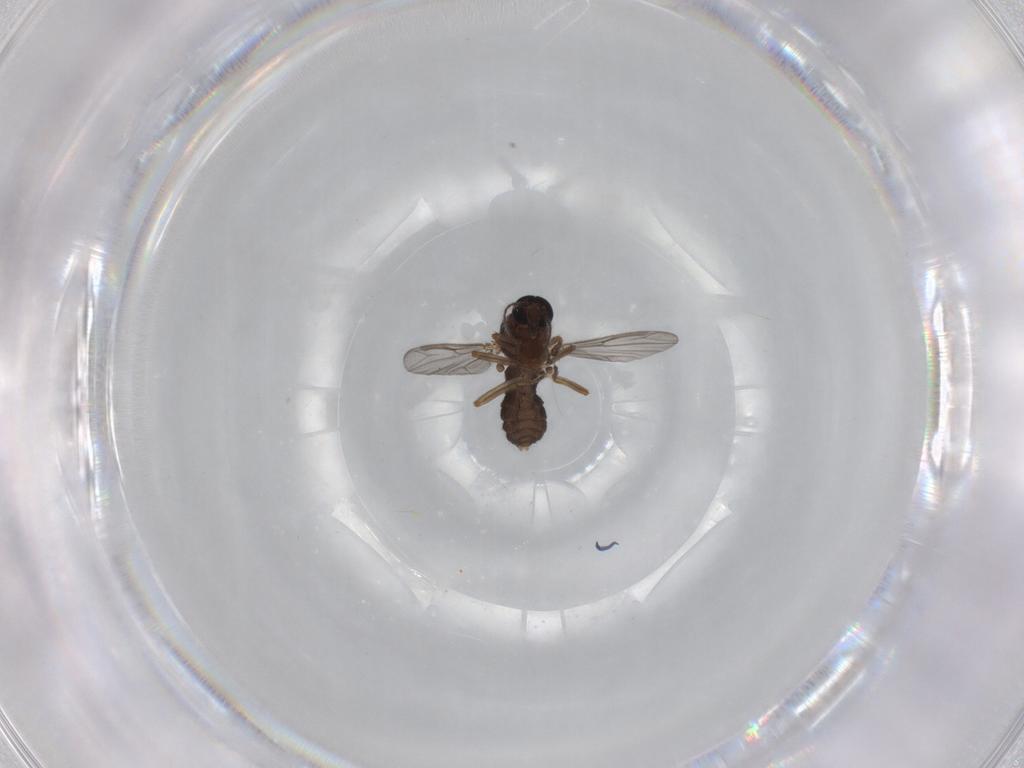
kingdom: Animalia
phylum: Arthropoda
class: Insecta
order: Diptera
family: Ceratopogonidae
